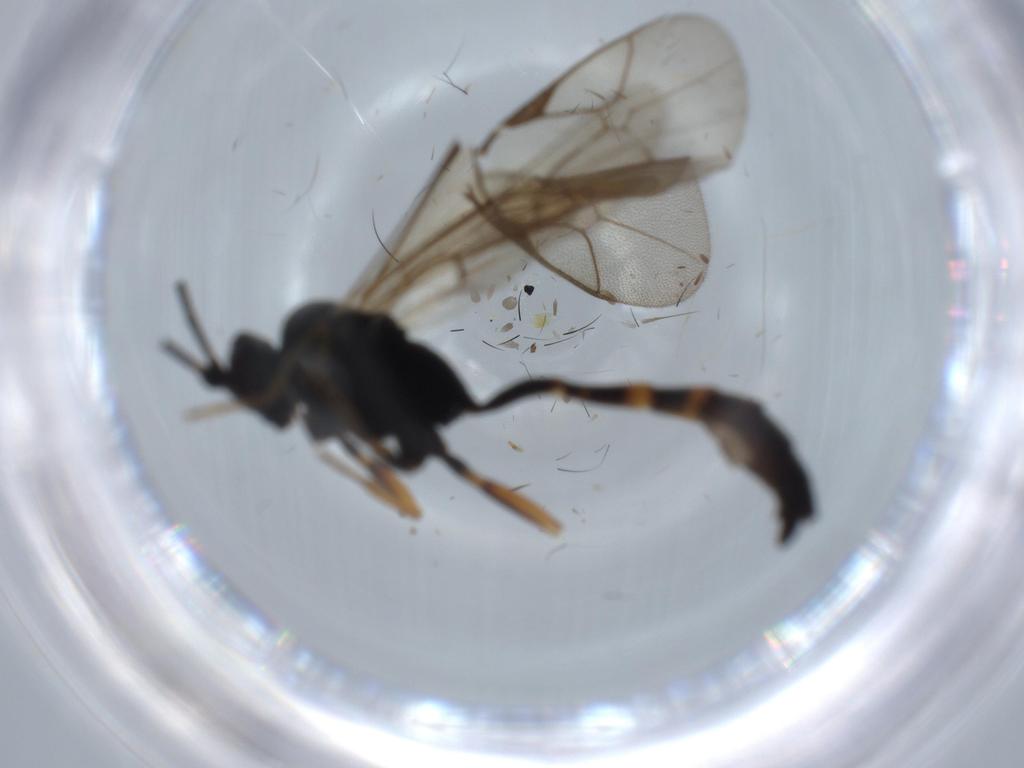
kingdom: Animalia
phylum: Arthropoda
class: Insecta
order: Hymenoptera
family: Ichneumonidae
